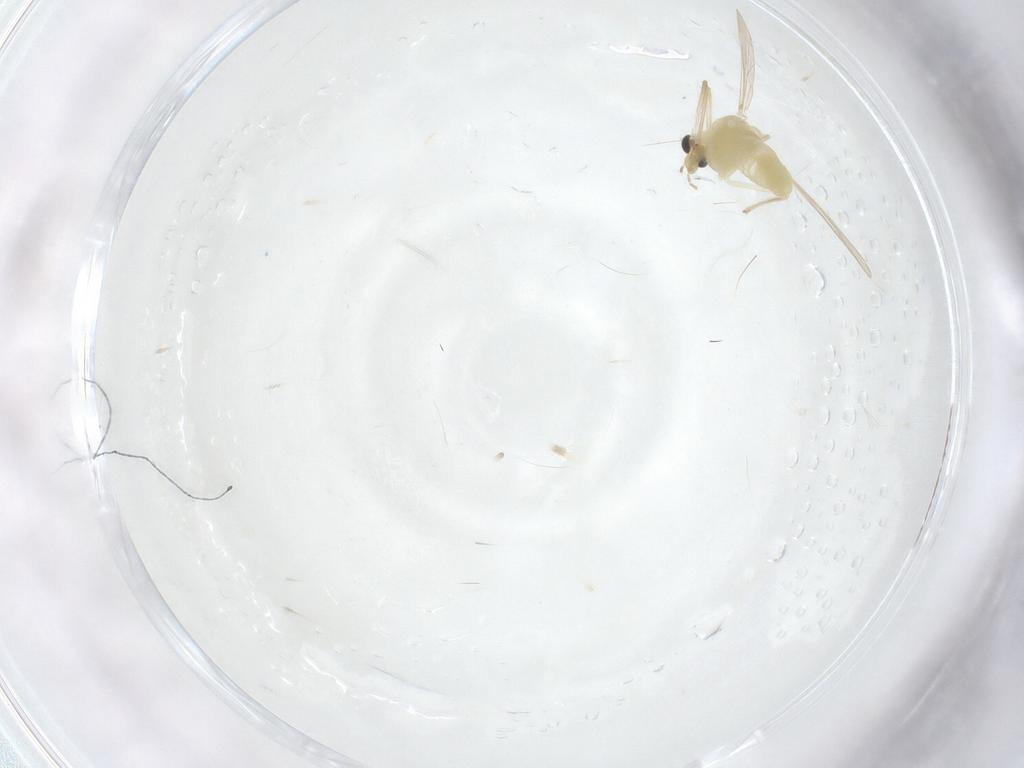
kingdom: Animalia
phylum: Arthropoda
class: Insecta
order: Diptera
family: Chironomidae
